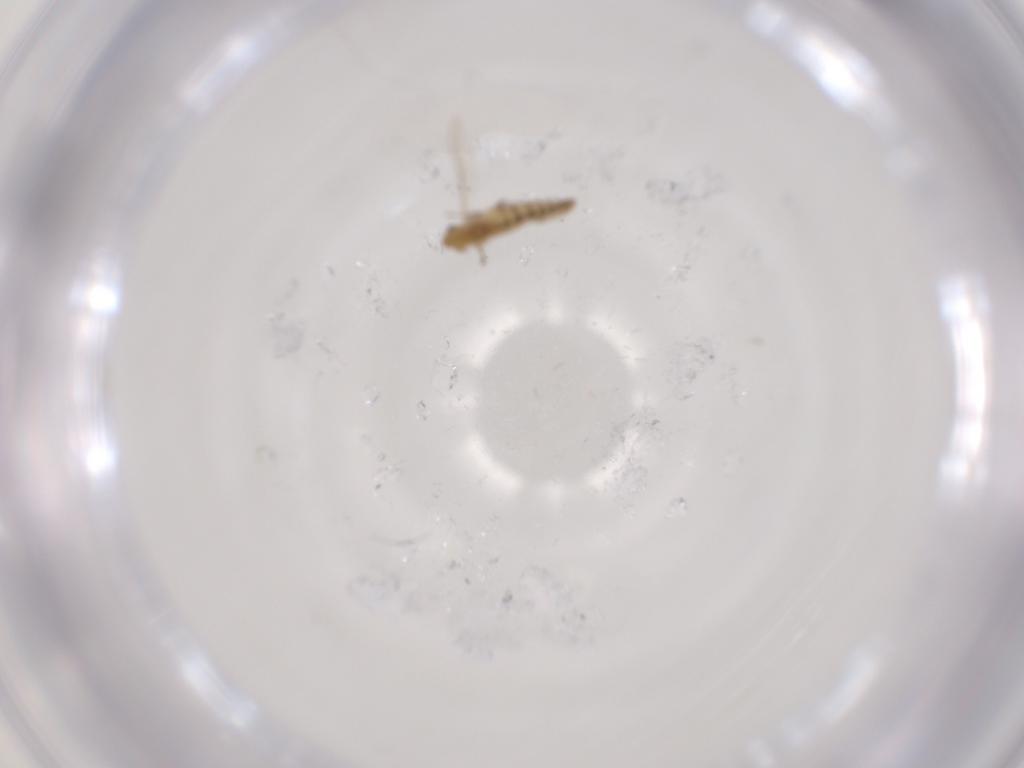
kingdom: Animalia
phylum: Arthropoda
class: Insecta
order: Diptera
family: Chironomidae
